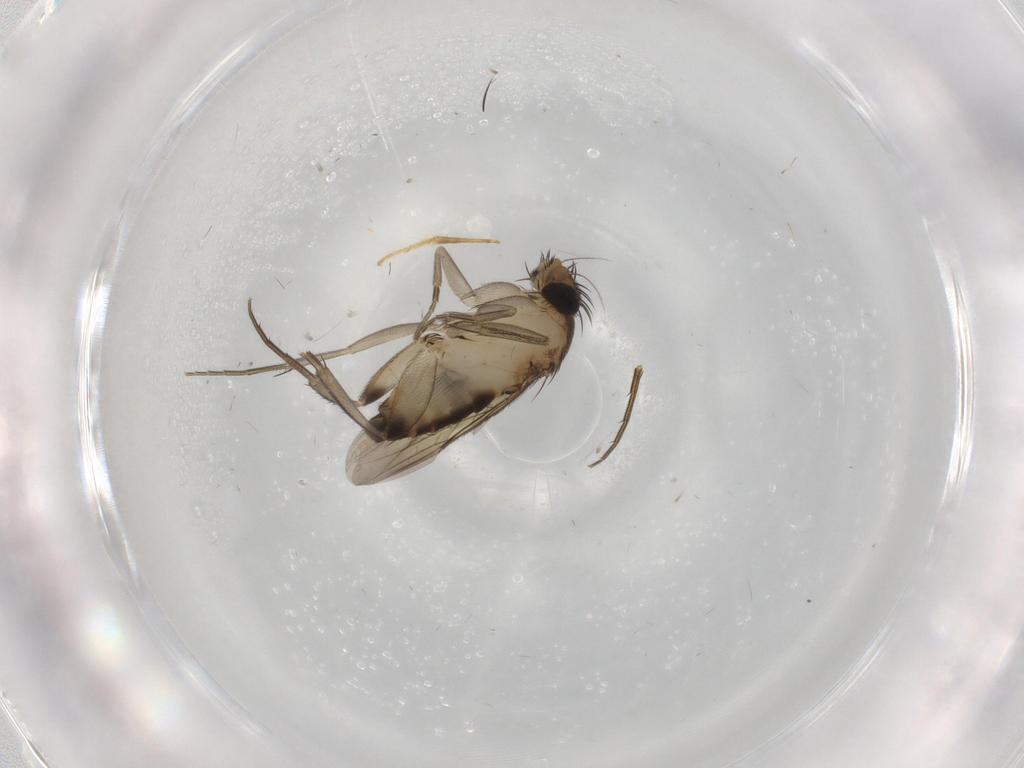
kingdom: Animalia
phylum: Arthropoda
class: Insecta
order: Diptera
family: Phoridae
